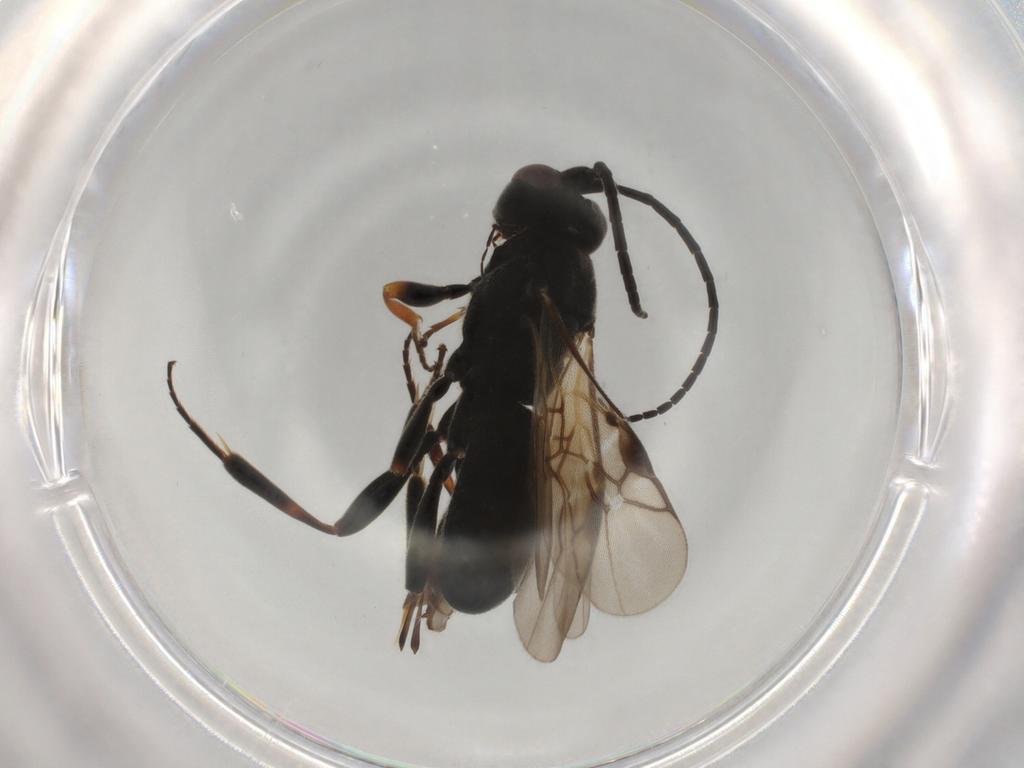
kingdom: Animalia
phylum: Arthropoda
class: Insecta
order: Hymenoptera
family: Braconidae
